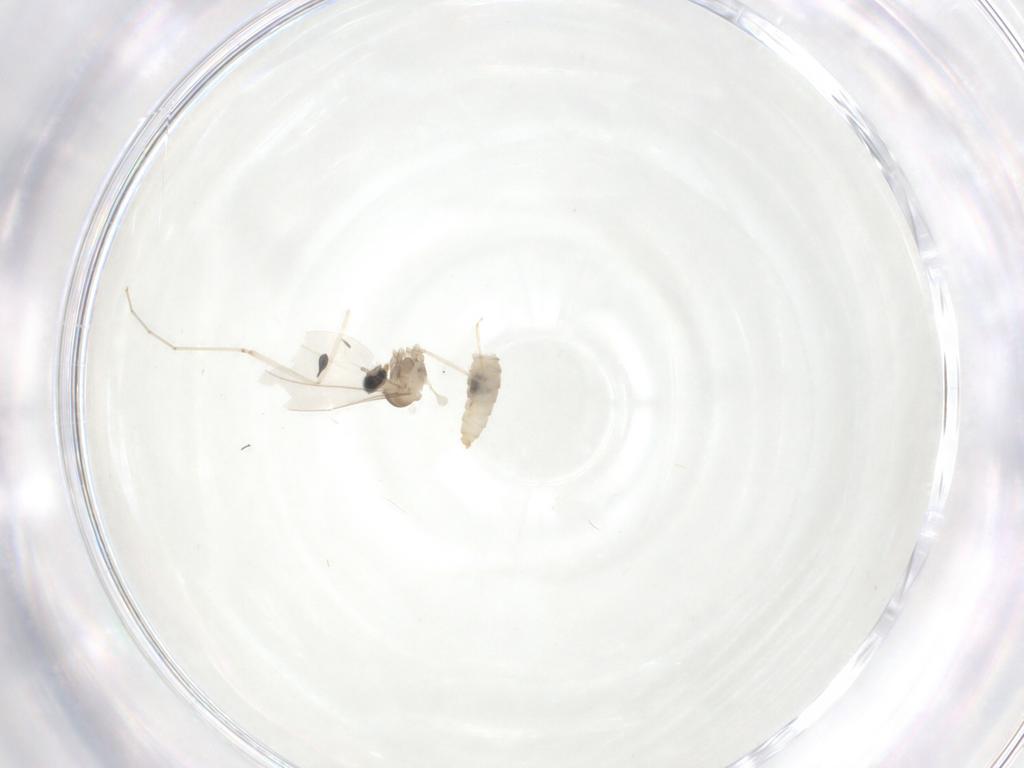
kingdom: Animalia
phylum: Arthropoda
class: Insecta
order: Diptera
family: Cecidomyiidae
